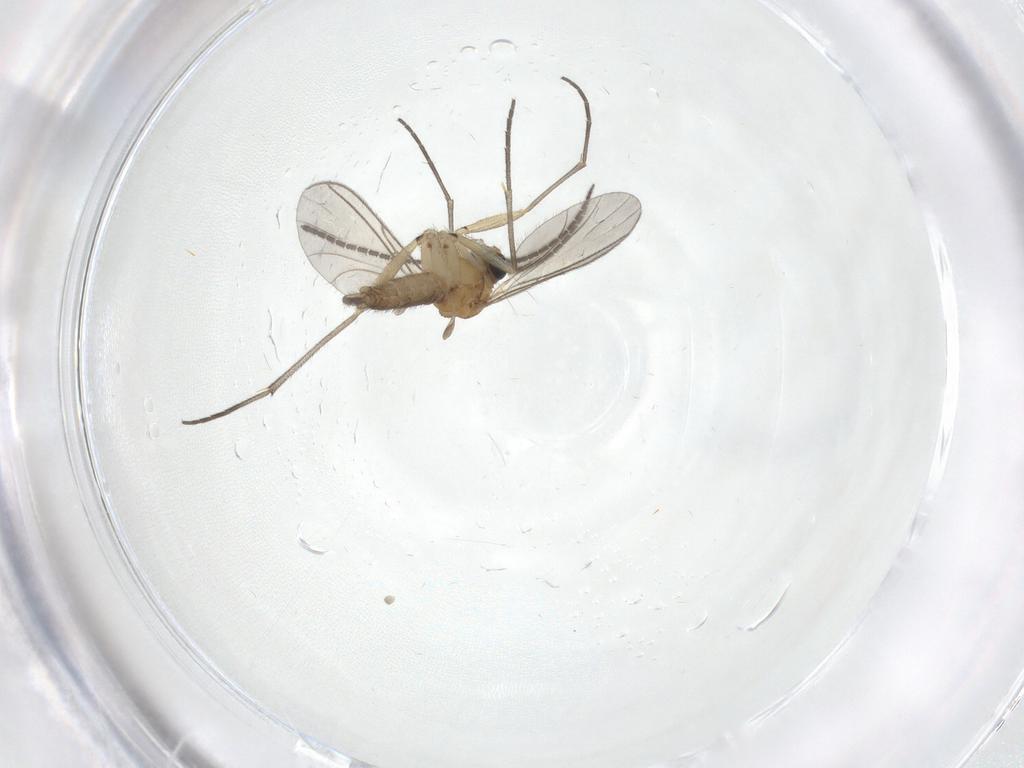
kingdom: Animalia
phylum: Arthropoda
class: Insecta
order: Diptera
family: Sciaridae
